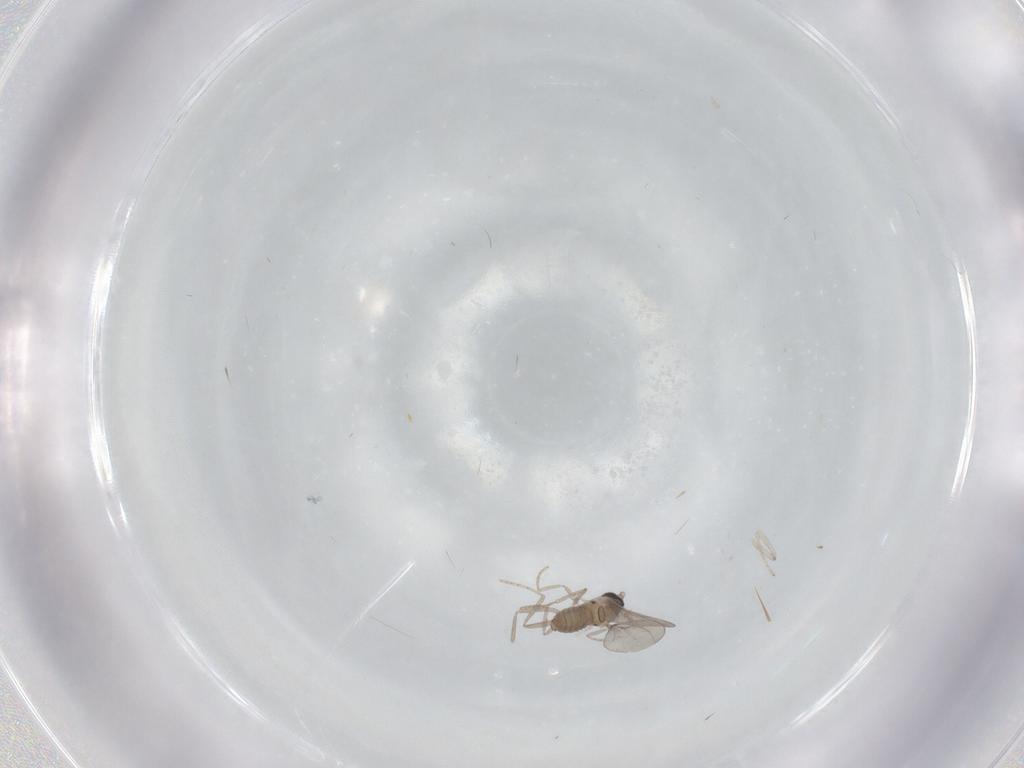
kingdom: Animalia
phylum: Arthropoda
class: Insecta
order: Diptera
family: Cecidomyiidae
